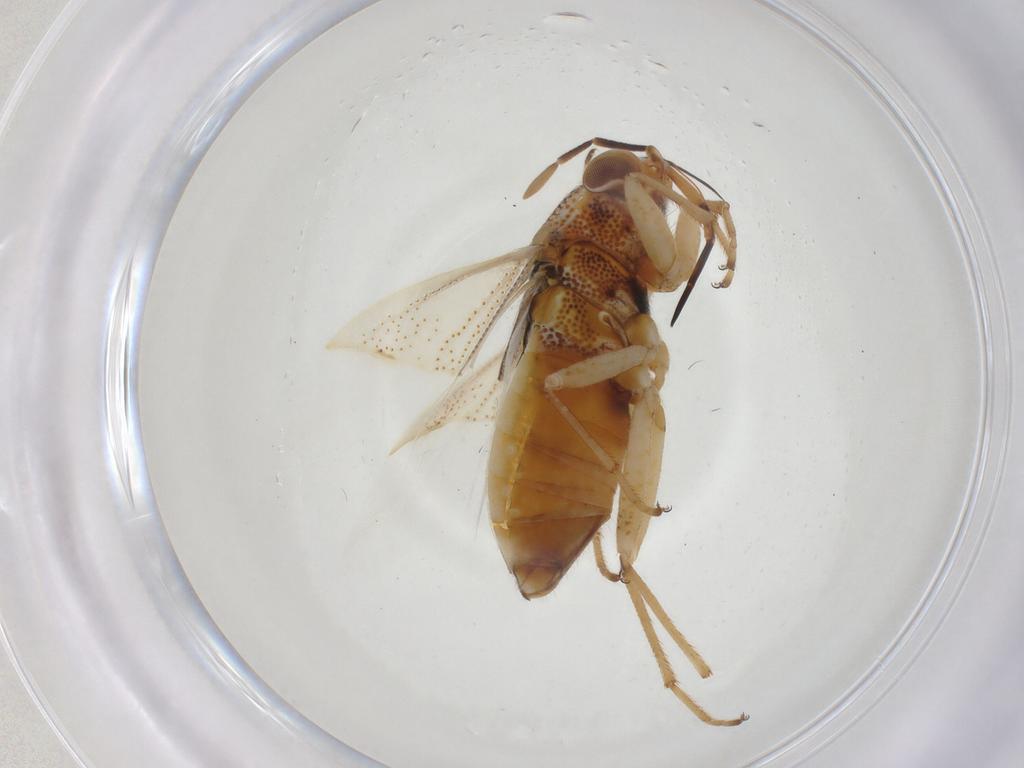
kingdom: Animalia
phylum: Arthropoda
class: Insecta
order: Hemiptera
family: Miridae
